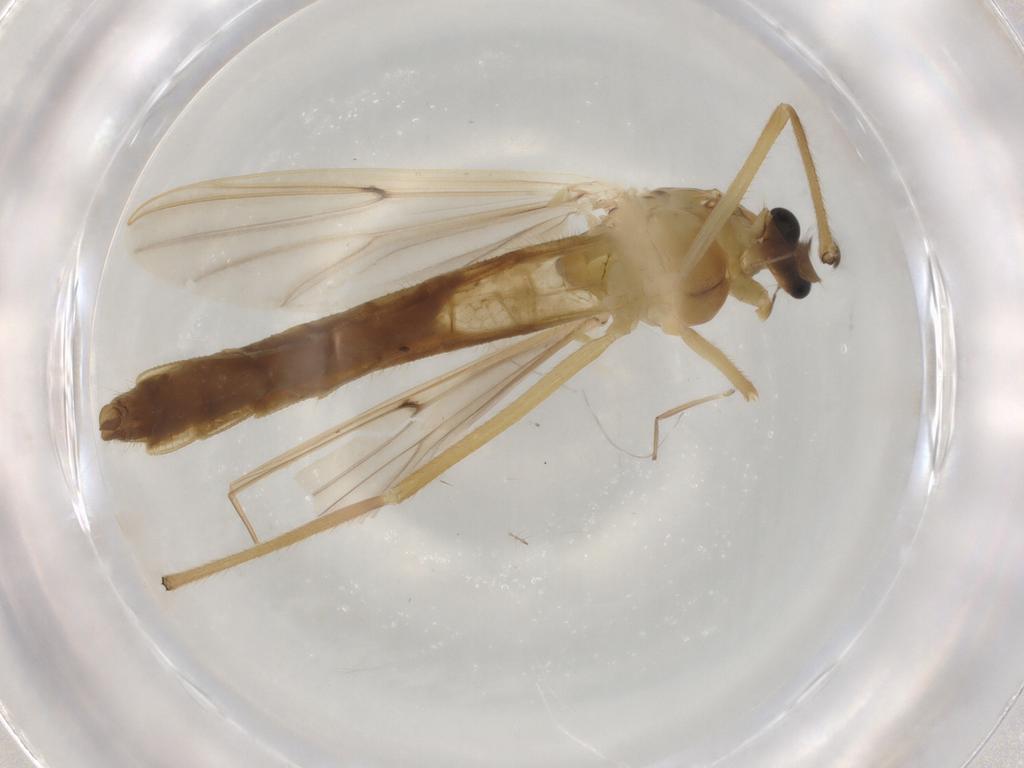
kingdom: Animalia
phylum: Arthropoda
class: Insecta
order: Diptera
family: Chironomidae
